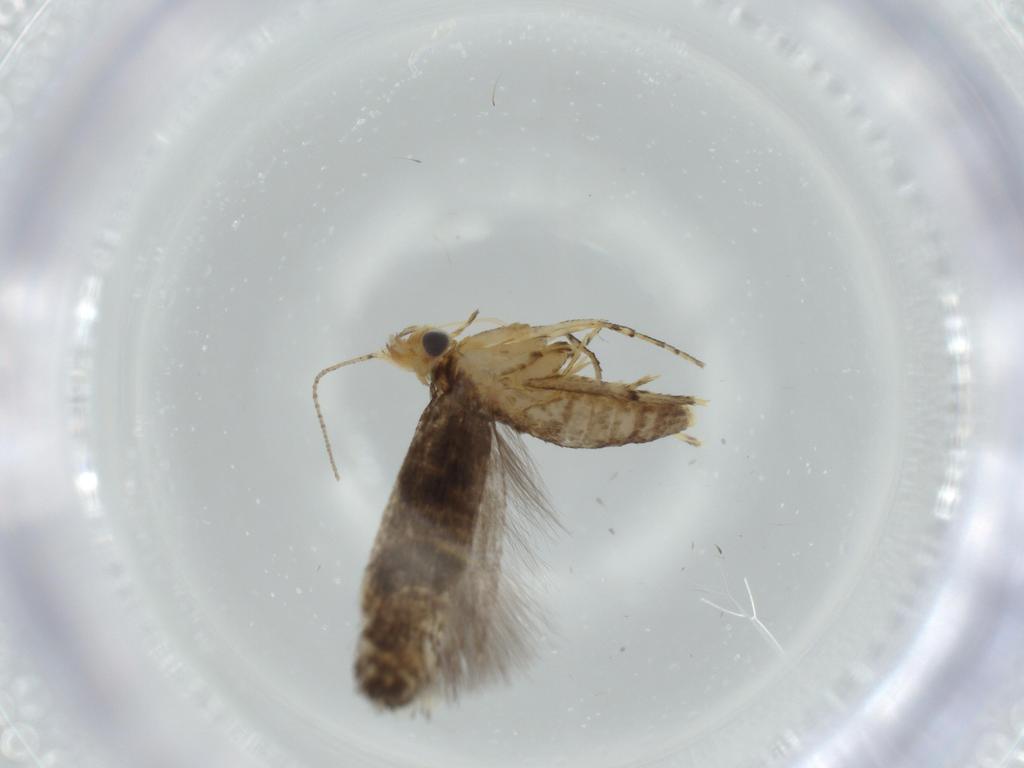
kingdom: Animalia
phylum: Arthropoda
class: Insecta
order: Lepidoptera
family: Argyresthiidae
